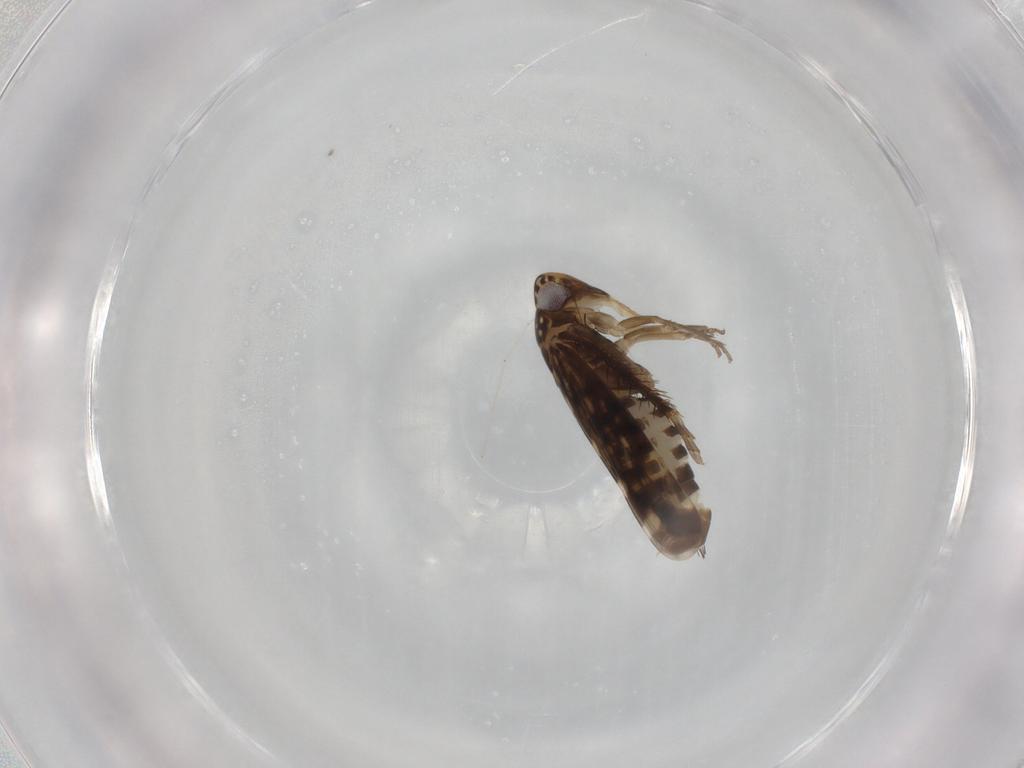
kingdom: Animalia
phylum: Arthropoda
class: Insecta
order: Hemiptera
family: Cicadellidae
